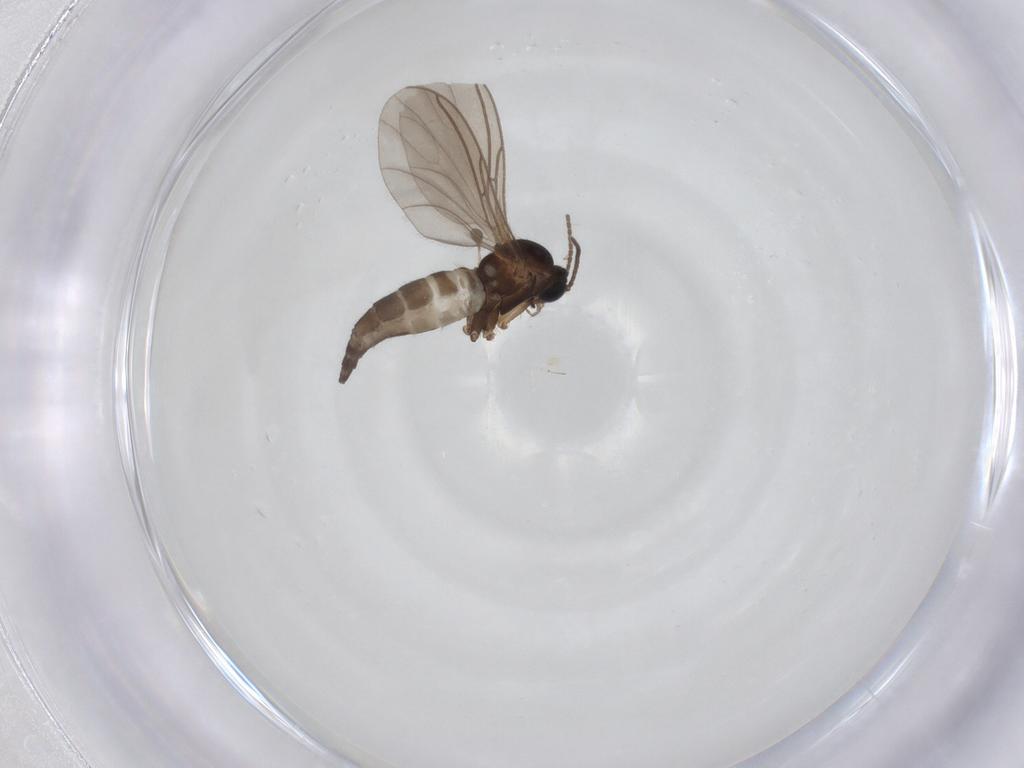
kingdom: Animalia
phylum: Arthropoda
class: Insecta
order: Diptera
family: Sciaridae
